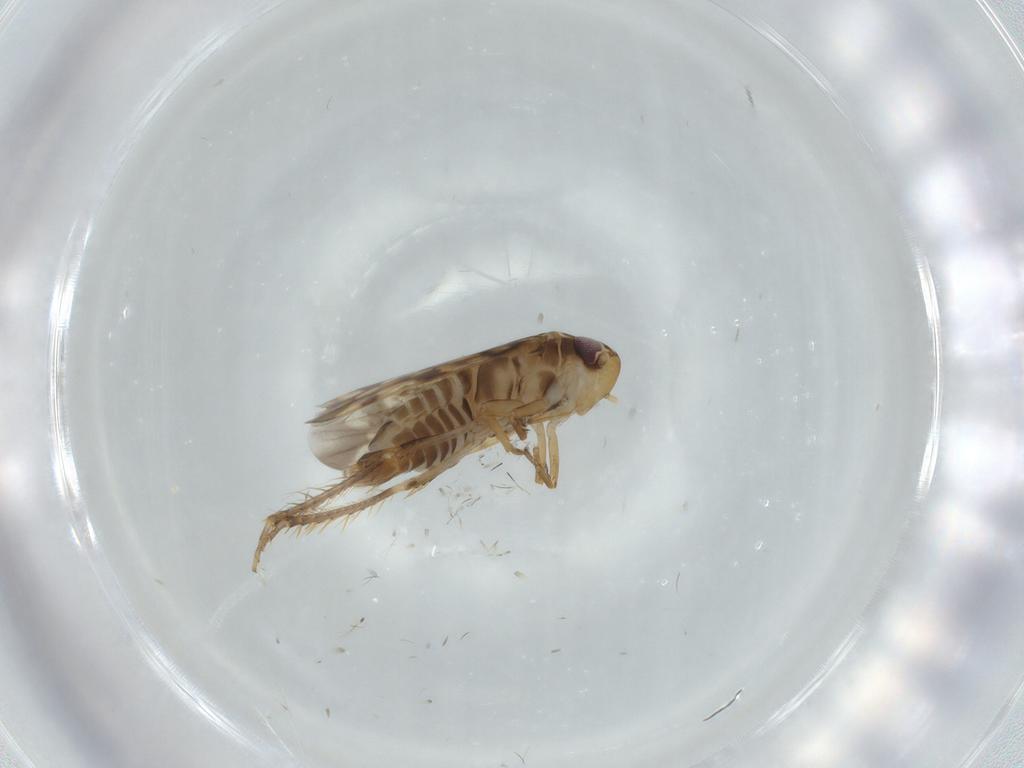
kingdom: Animalia
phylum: Arthropoda
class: Insecta
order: Hemiptera
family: Cicadellidae
